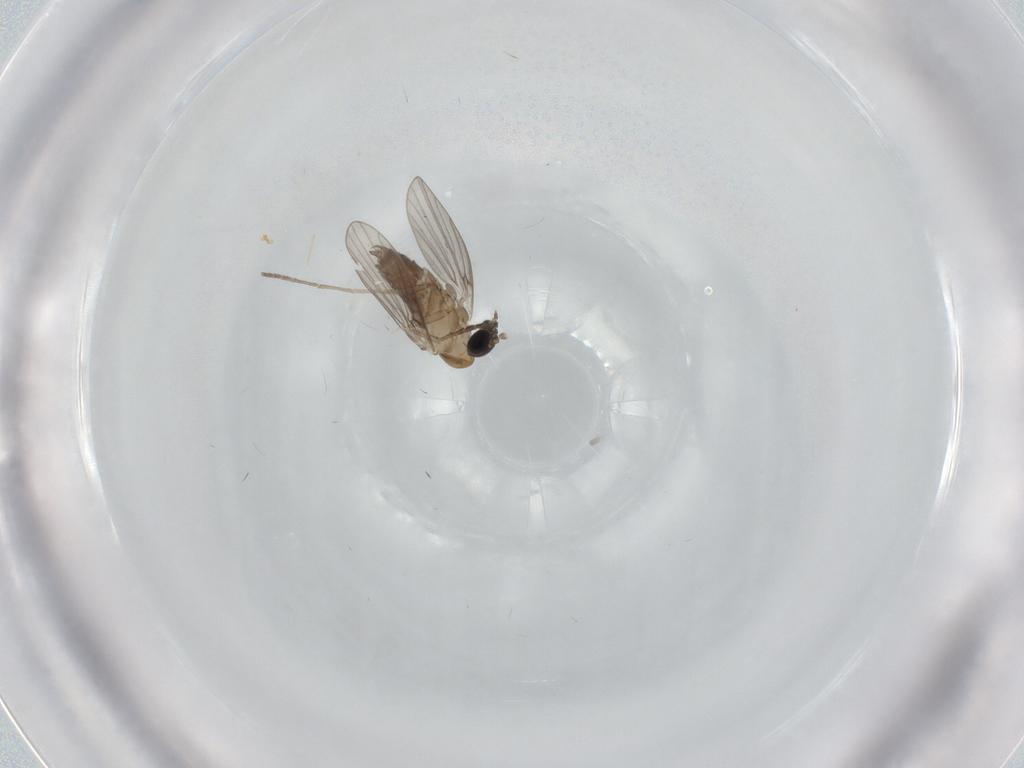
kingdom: Animalia
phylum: Arthropoda
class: Insecta
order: Diptera
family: Psychodidae
